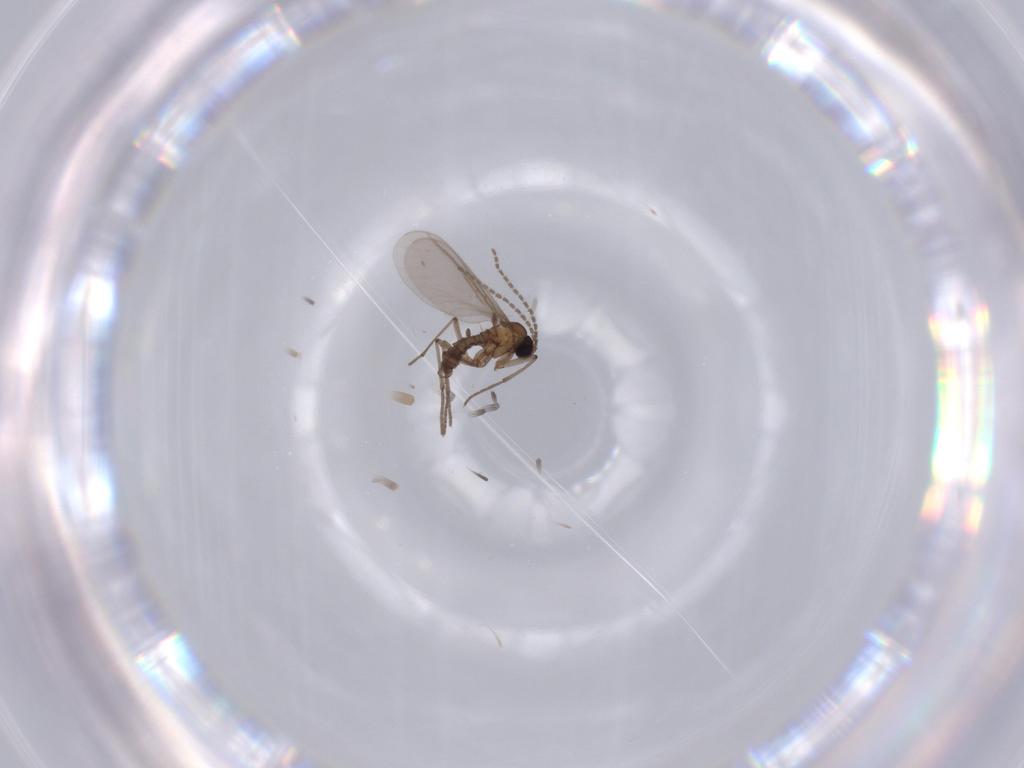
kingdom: Animalia
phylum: Arthropoda
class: Insecta
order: Diptera
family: Sciaridae
